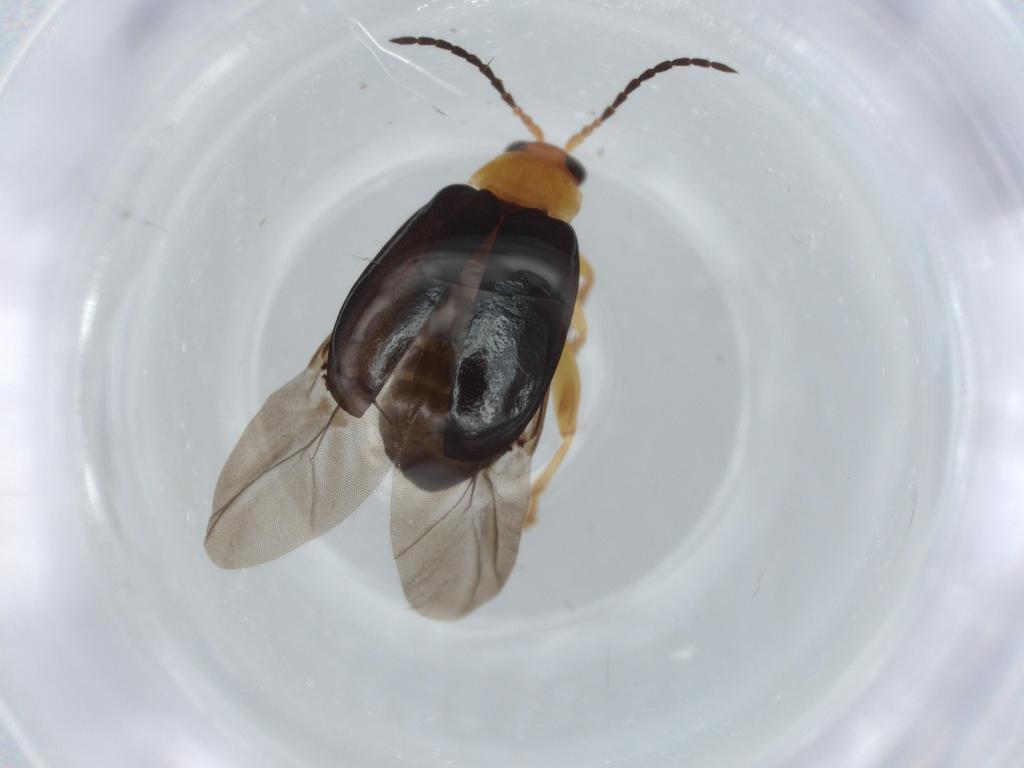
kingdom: Animalia
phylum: Arthropoda
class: Insecta
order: Coleoptera
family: Chrysomelidae
